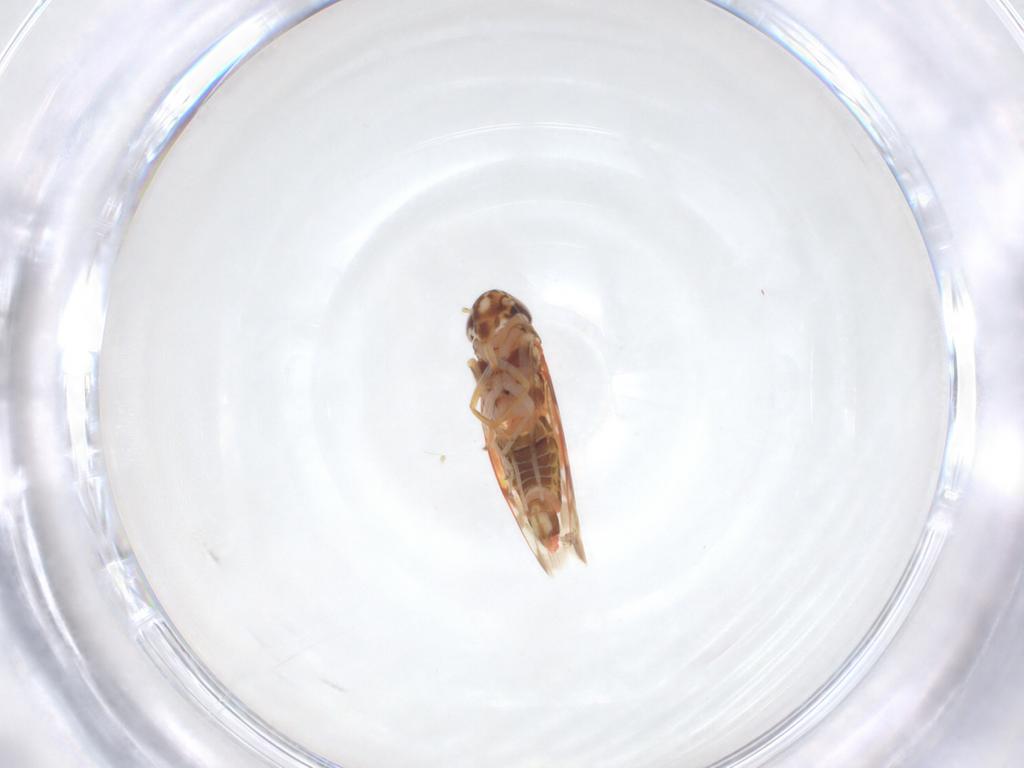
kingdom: Animalia
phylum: Arthropoda
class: Insecta
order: Hemiptera
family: Cicadellidae
